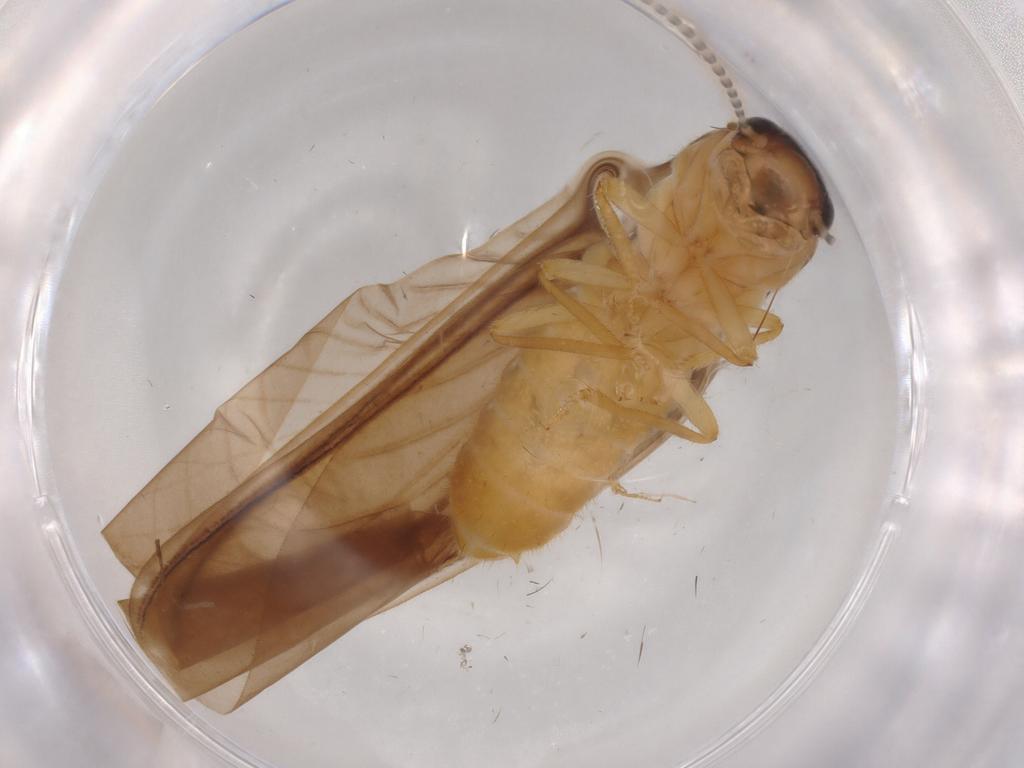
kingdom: Animalia
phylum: Arthropoda
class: Insecta
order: Blattodea
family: Termitidae
